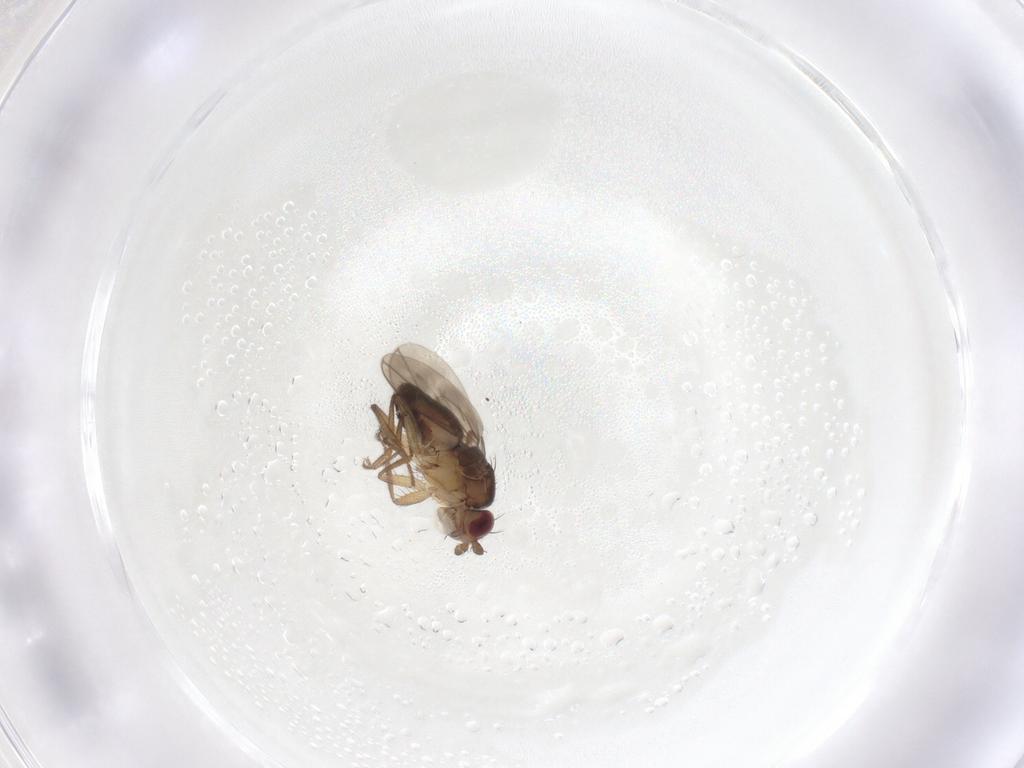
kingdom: Animalia
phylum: Arthropoda
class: Insecta
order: Diptera
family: Sphaeroceridae
